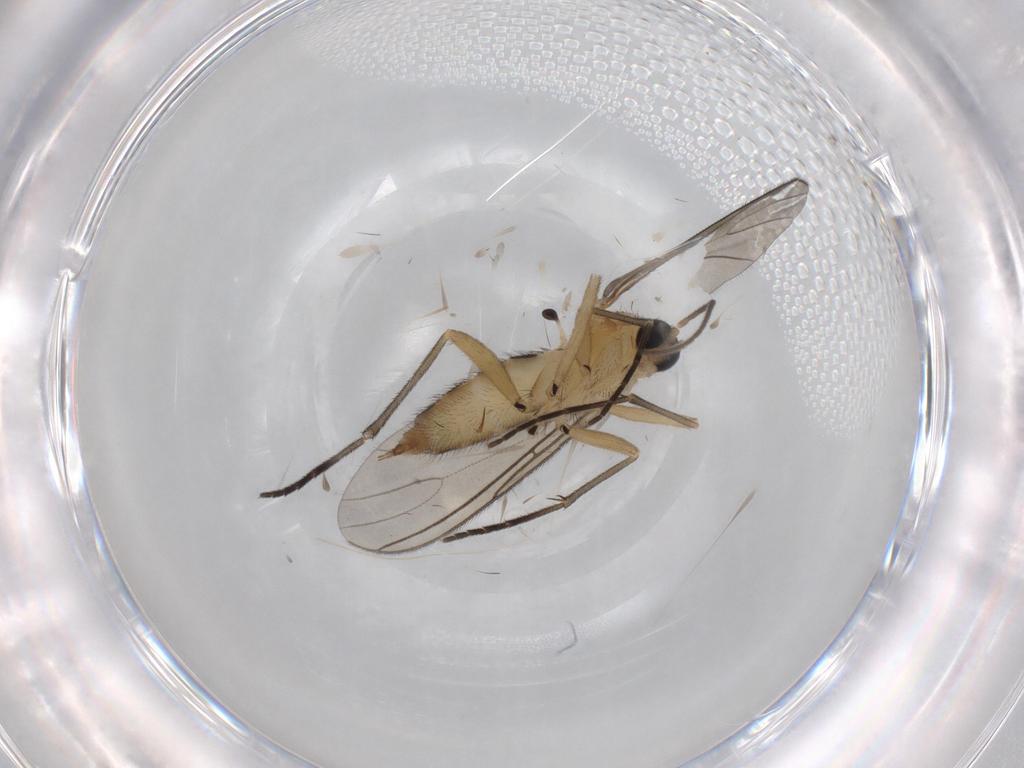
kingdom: Animalia
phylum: Arthropoda
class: Insecta
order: Diptera
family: Sciaridae
